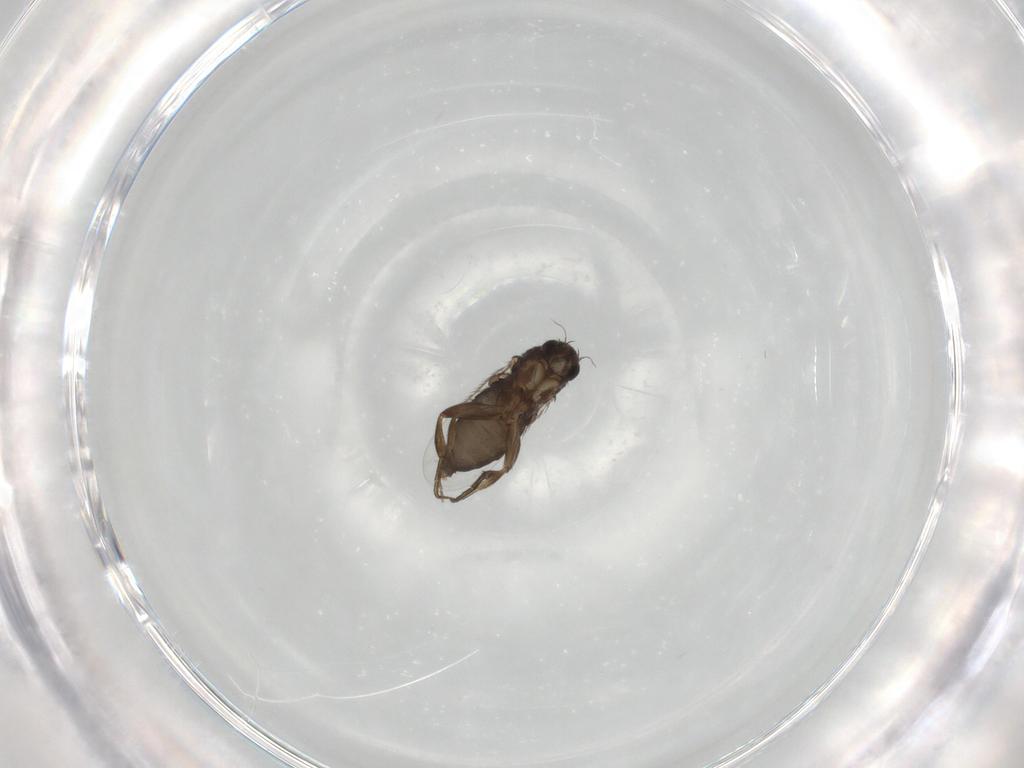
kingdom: Animalia
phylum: Arthropoda
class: Insecta
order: Diptera
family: Phoridae
